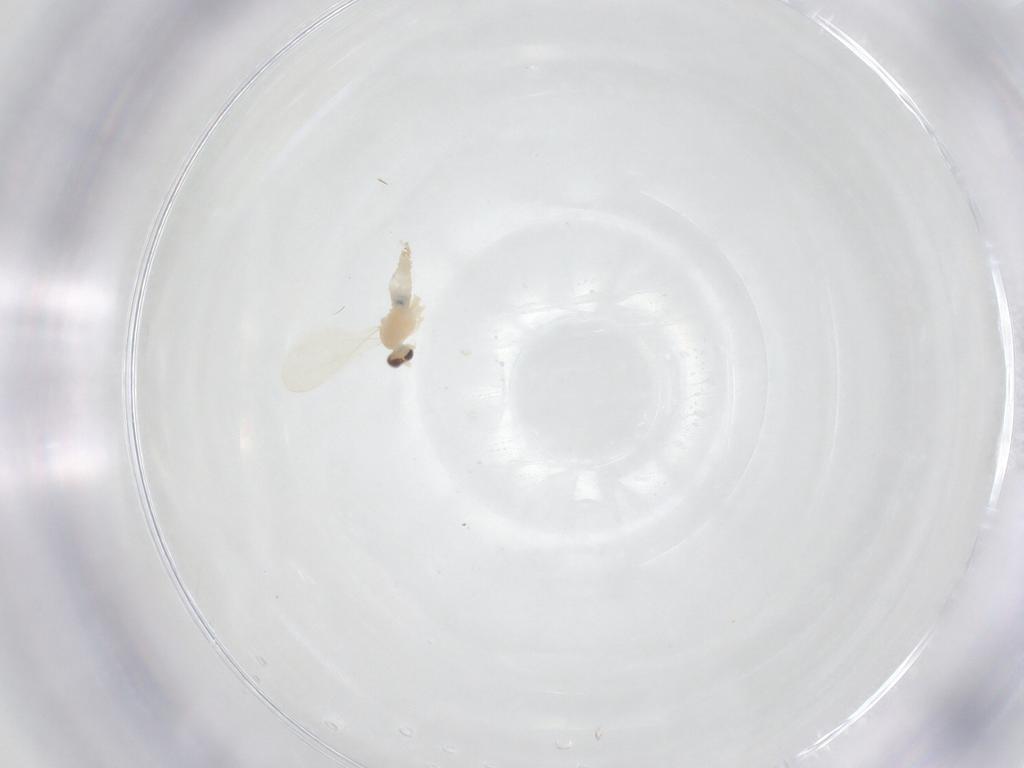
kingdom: Animalia
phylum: Arthropoda
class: Insecta
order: Diptera
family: Cecidomyiidae
